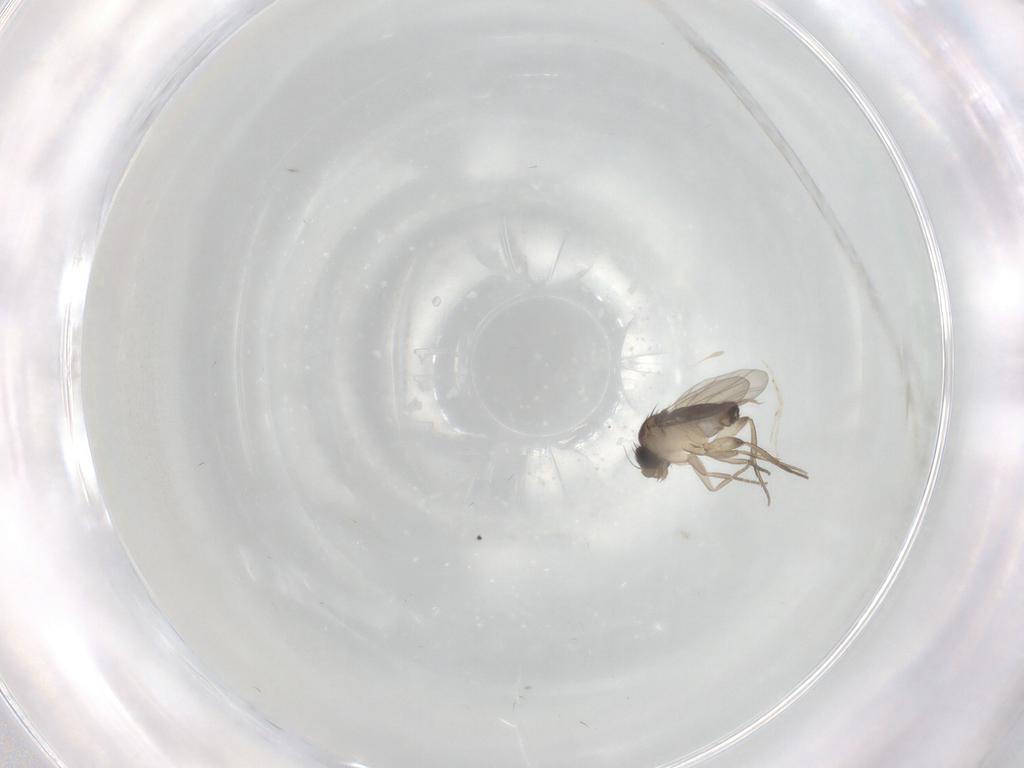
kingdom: Animalia
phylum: Arthropoda
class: Insecta
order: Diptera
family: Phoridae
